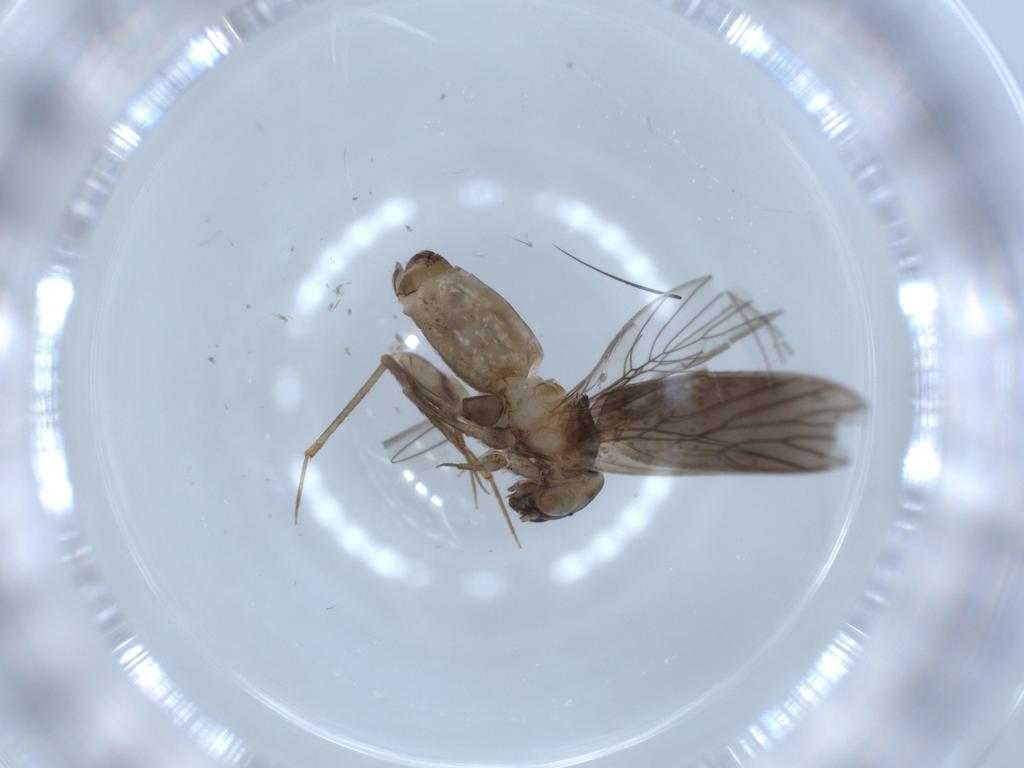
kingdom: Animalia
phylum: Arthropoda
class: Insecta
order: Psocodea
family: Lepidopsocidae
